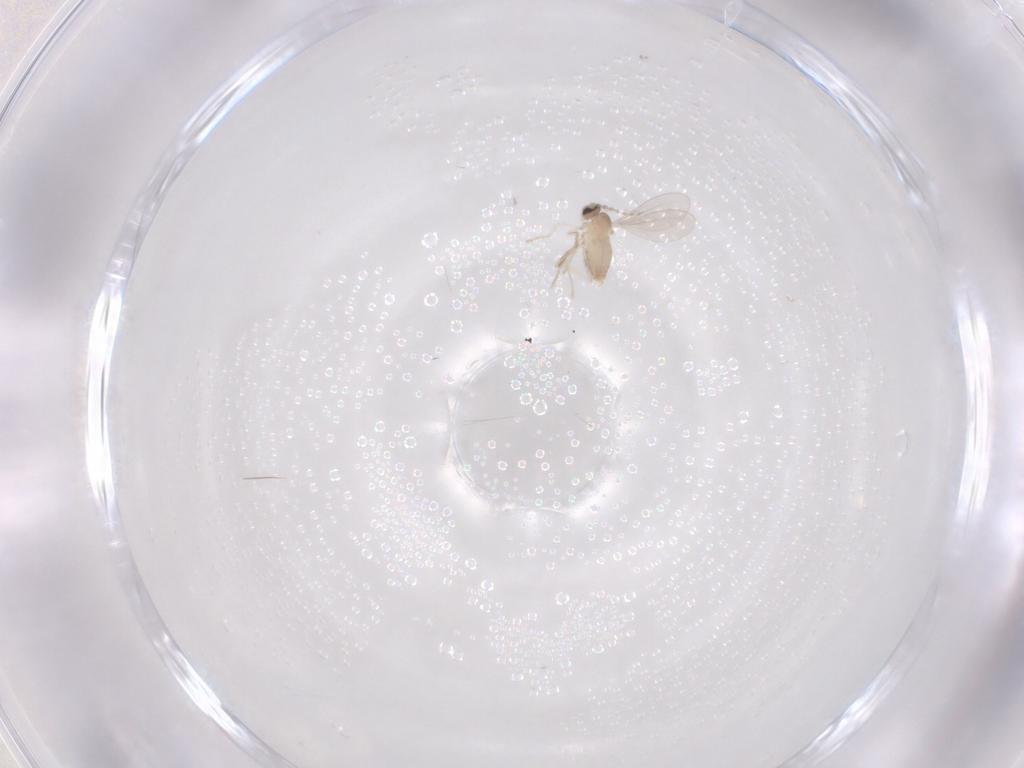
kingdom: Animalia
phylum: Arthropoda
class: Insecta
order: Diptera
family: Cecidomyiidae
